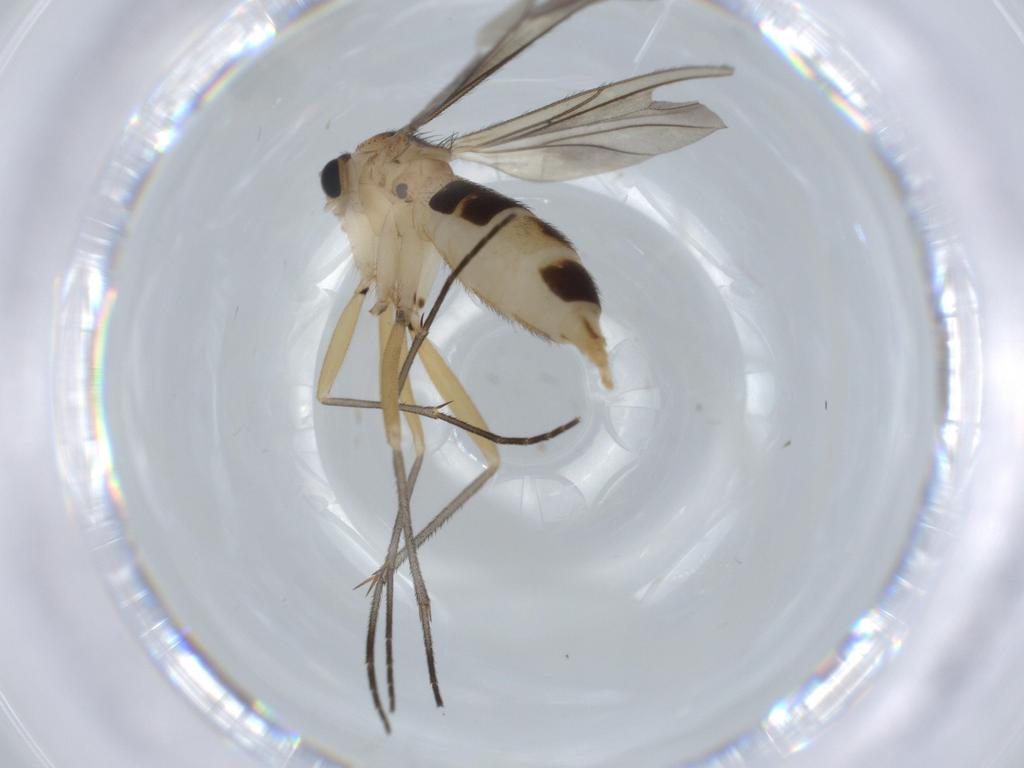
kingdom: Animalia
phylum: Arthropoda
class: Insecta
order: Diptera
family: Sciaridae
